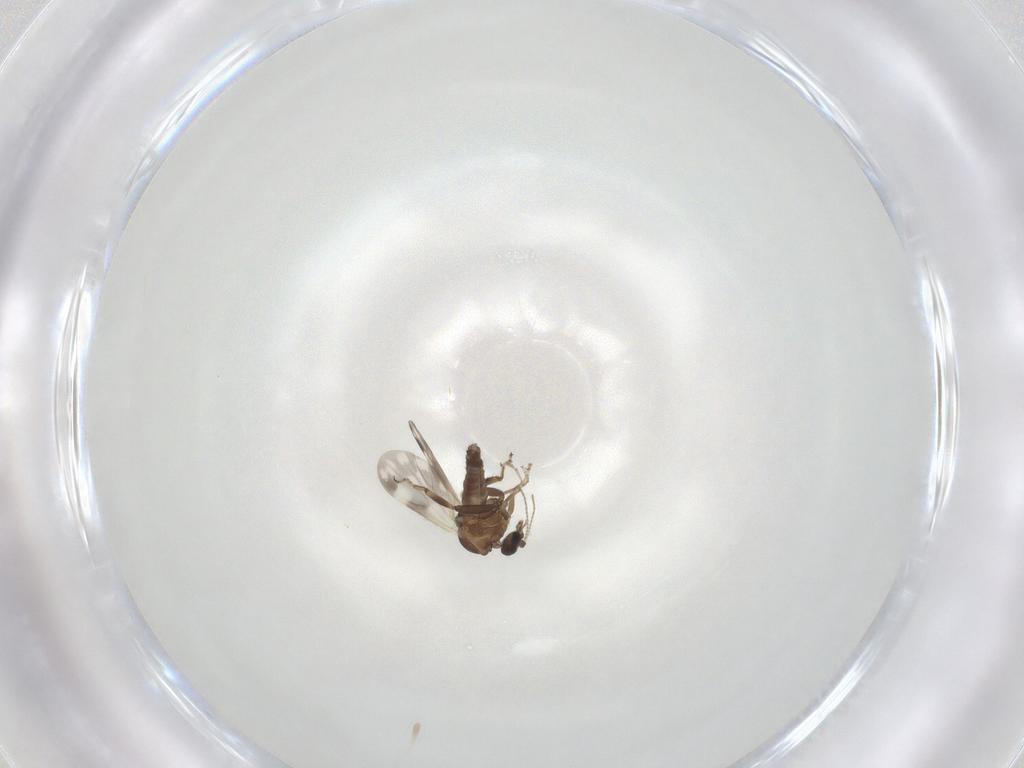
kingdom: Animalia
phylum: Arthropoda
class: Insecta
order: Diptera
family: Ceratopogonidae
